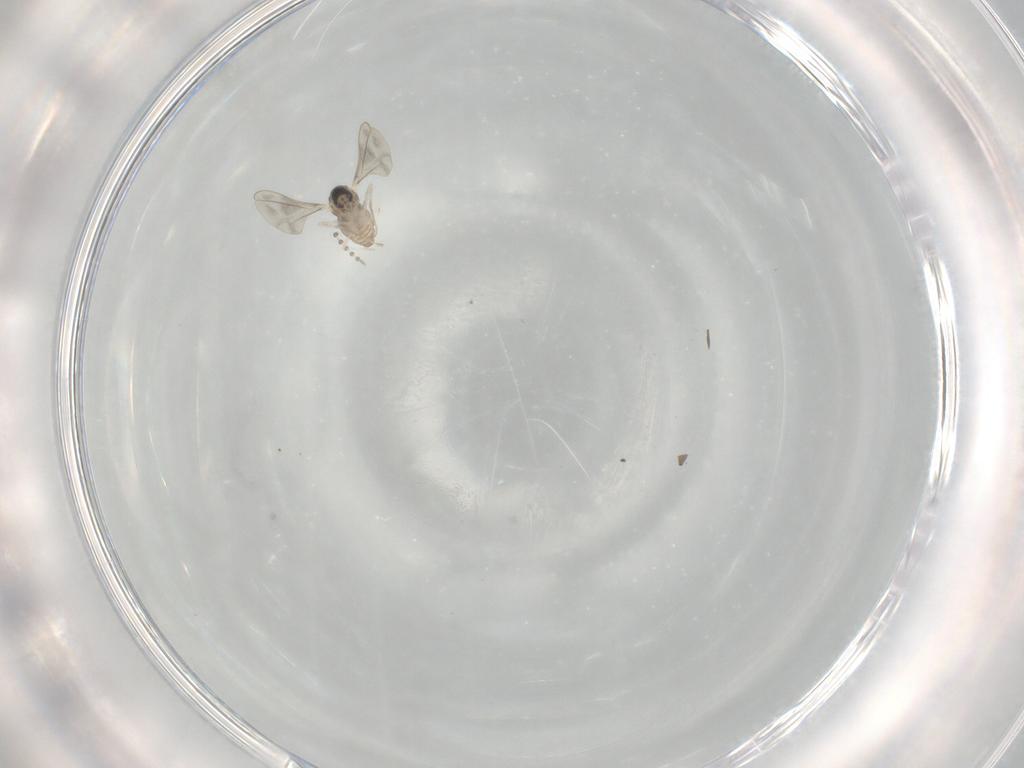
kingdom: Animalia
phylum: Arthropoda
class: Insecta
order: Diptera
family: Cecidomyiidae
